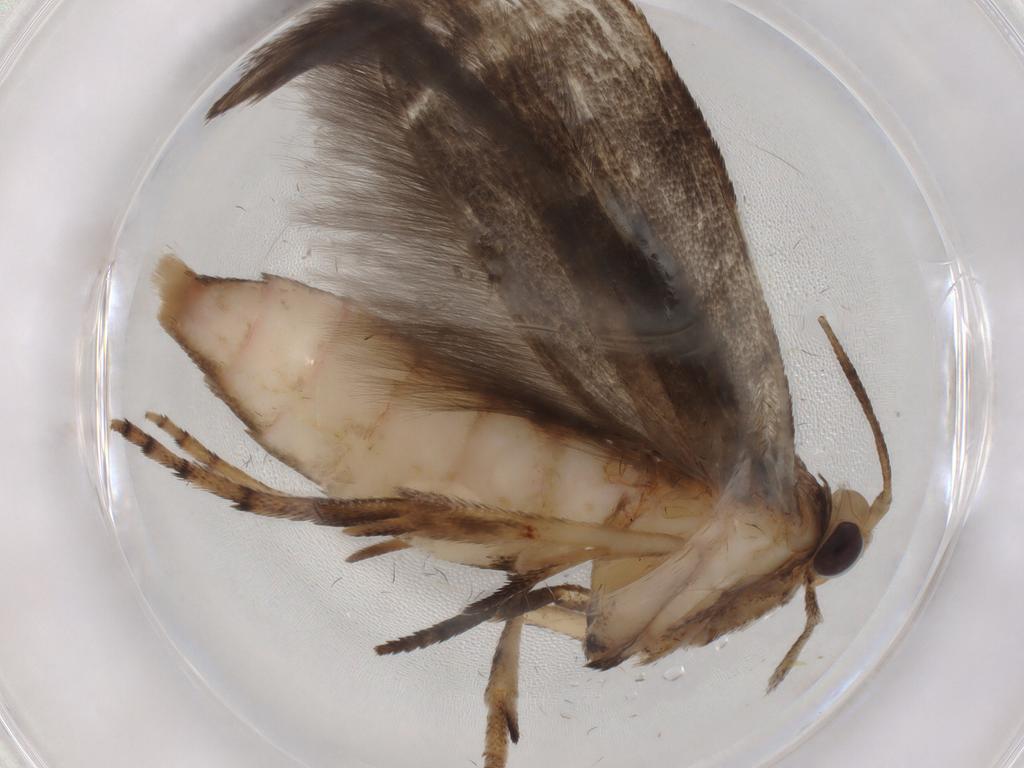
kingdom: Animalia
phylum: Arthropoda
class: Insecta
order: Lepidoptera
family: Yponomeutidae
